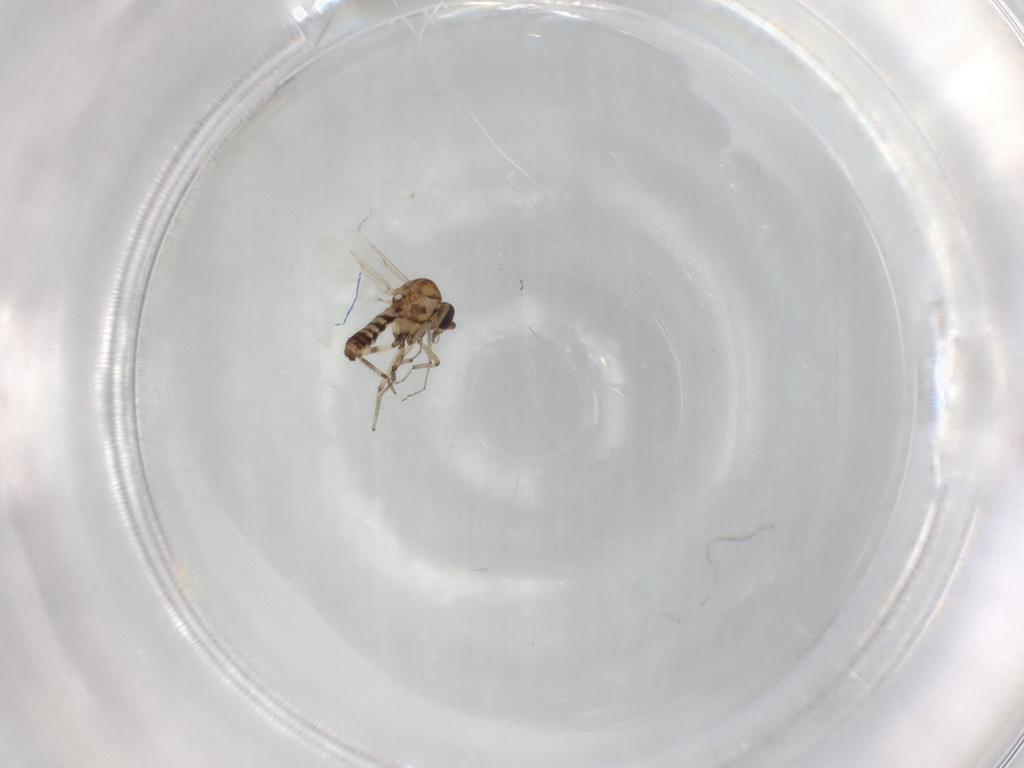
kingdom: Animalia
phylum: Arthropoda
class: Insecta
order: Diptera
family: Ceratopogonidae
